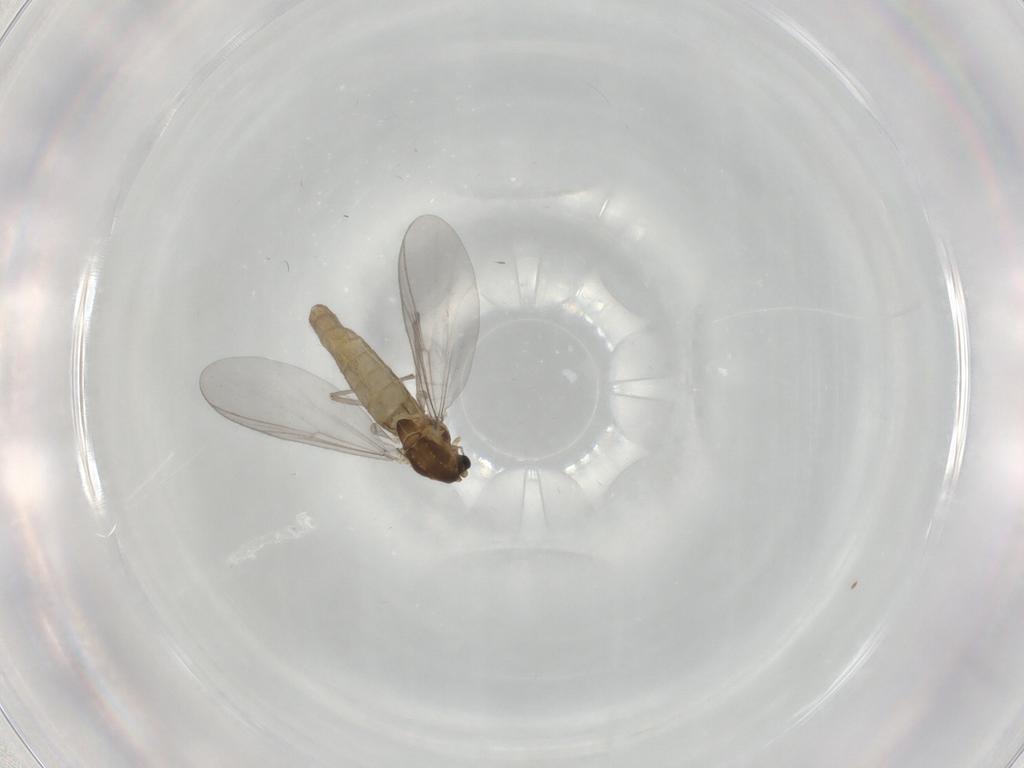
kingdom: Animalia
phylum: Arthropoda
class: Insecta
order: Diptera
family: Chironomidae
